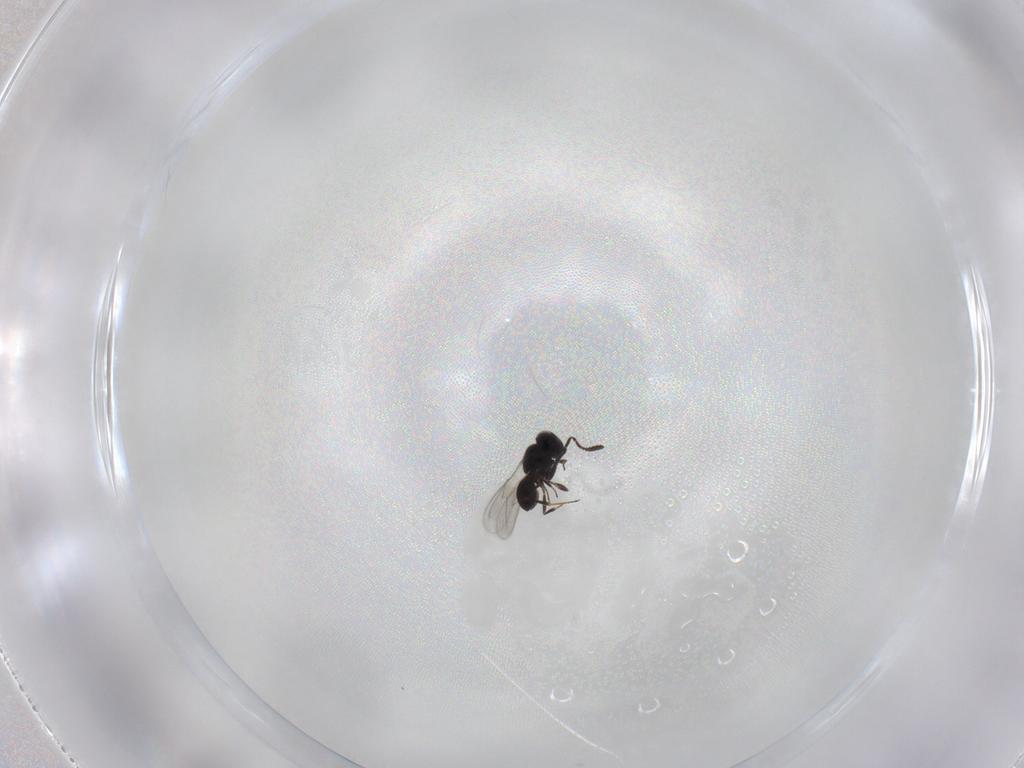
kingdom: Animalia
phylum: Arthropoda
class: Insecta
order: Hymenoptera
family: Scelionidae
